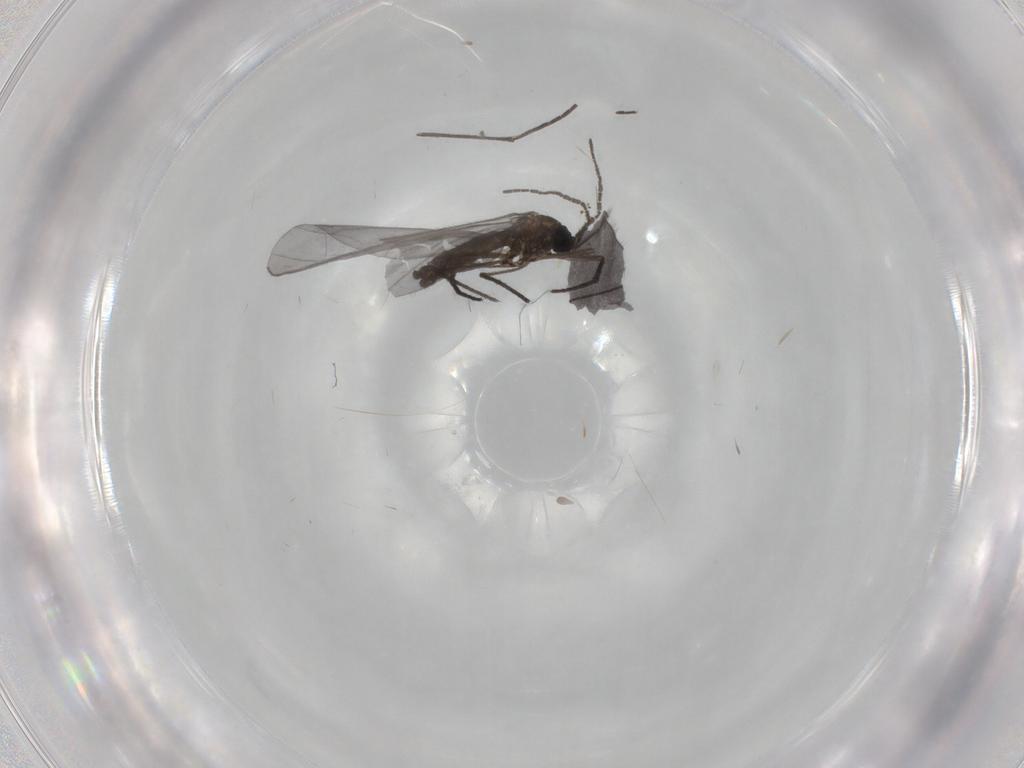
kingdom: Animalia
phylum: Arthropoda
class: Insecta
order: Diptera
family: Sciaridae
